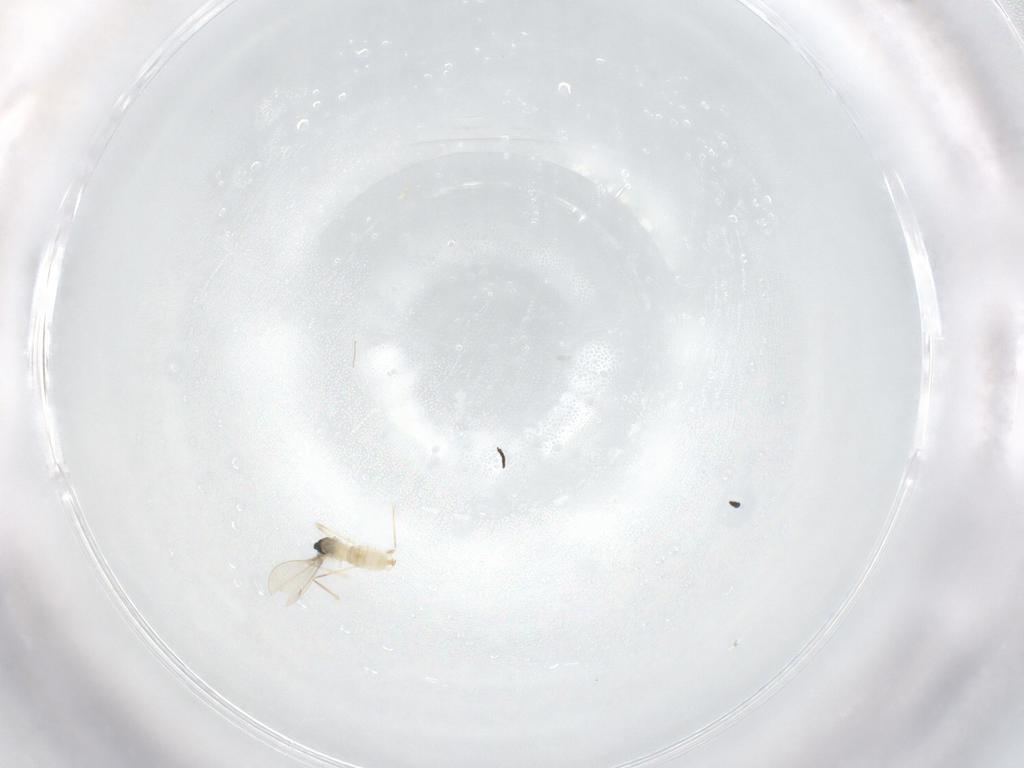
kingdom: Animalia
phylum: Arthropoda
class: Insecta
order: Diptera
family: Cecidomyiidae
